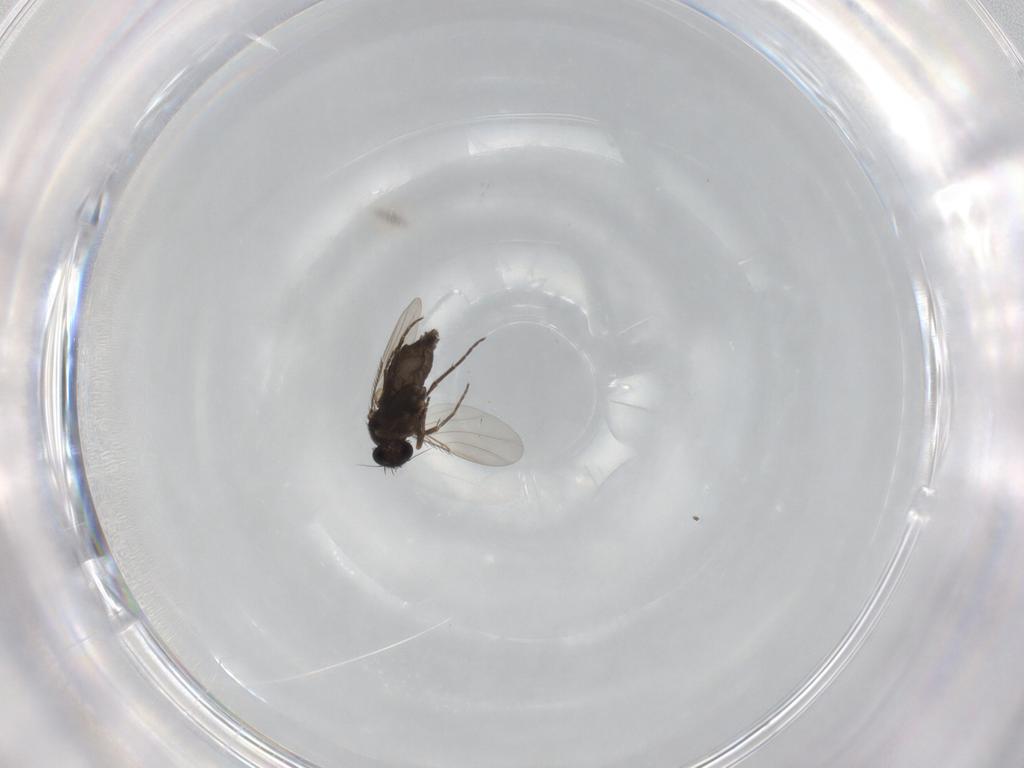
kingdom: Animalia
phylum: Arthropoda
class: Insecta
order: Diptera
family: Phoridae
